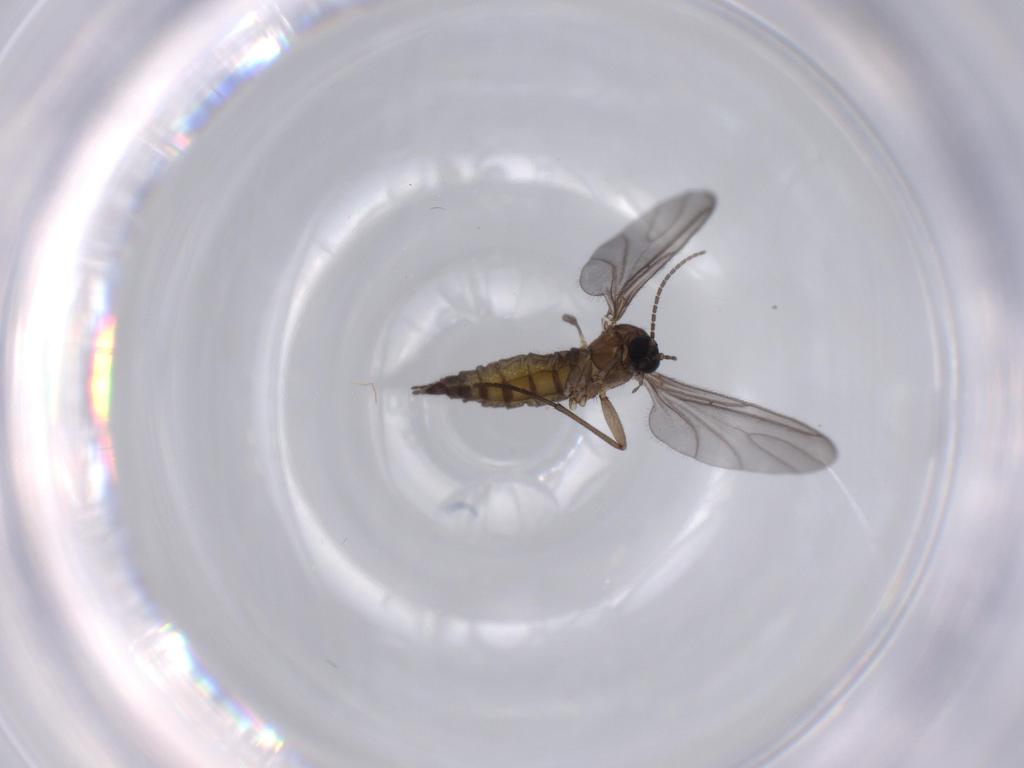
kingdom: Animalia
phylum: Arthropoda
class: Insecta
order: Diptera
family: Sciaridae
